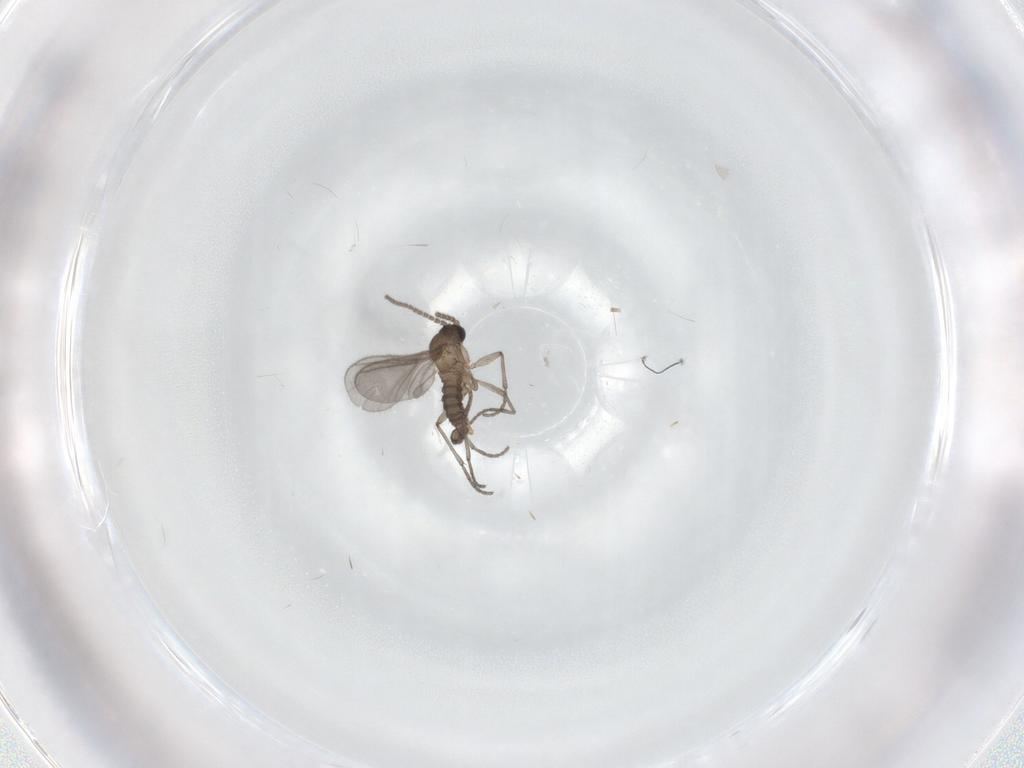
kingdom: Animalia
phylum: Arthropoda
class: Insecta
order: Diptera
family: Sciaridae
